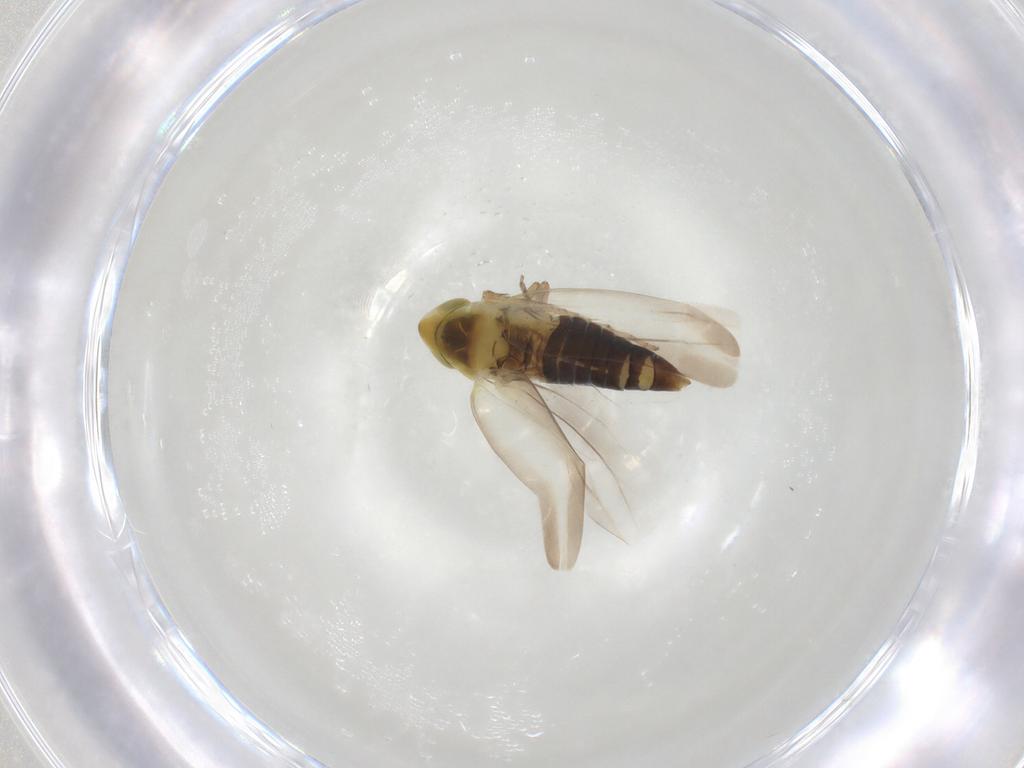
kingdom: Animalia
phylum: Arthropoda
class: Insecta
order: Hemiptera
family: Cicadellidae
